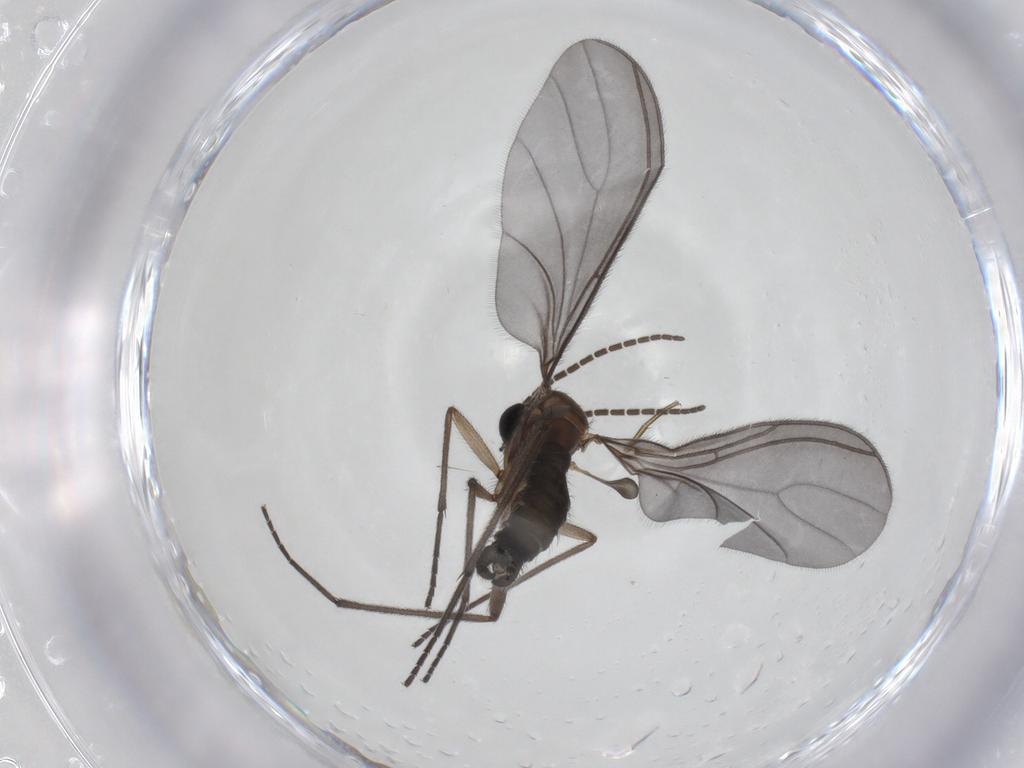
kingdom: Animalia
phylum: Arthropoda
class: Insecta
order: Diptera
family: Sciaridae
